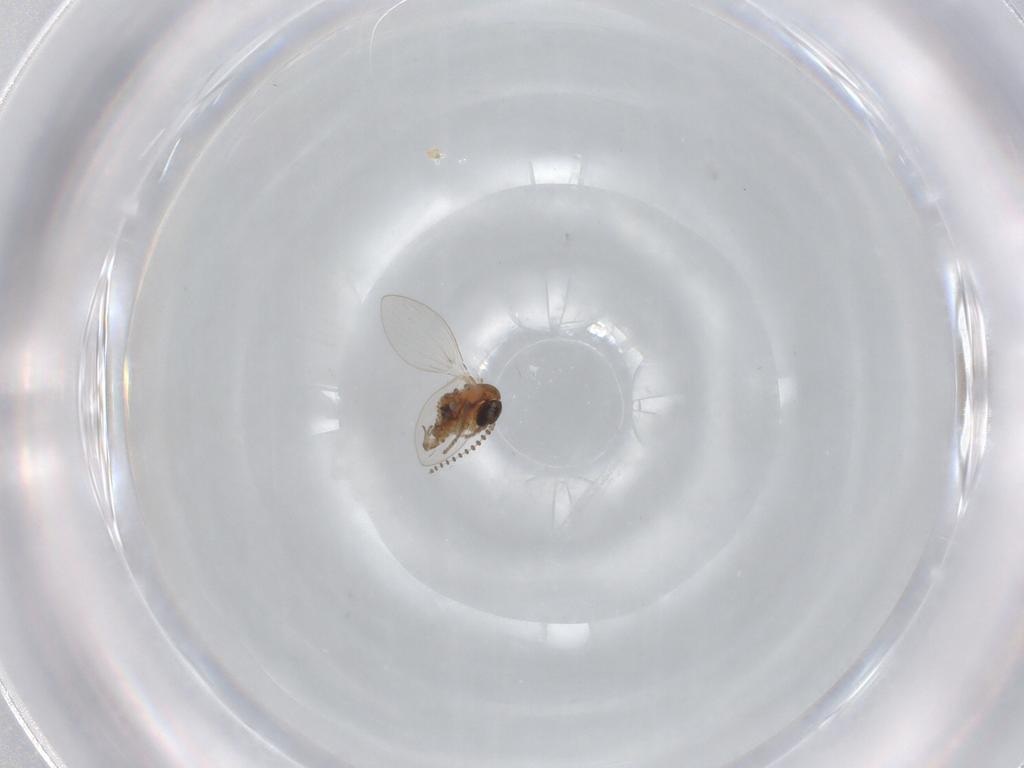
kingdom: Animalia
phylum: Arthropoda
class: Insecta
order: Diptera
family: Psychodidae
